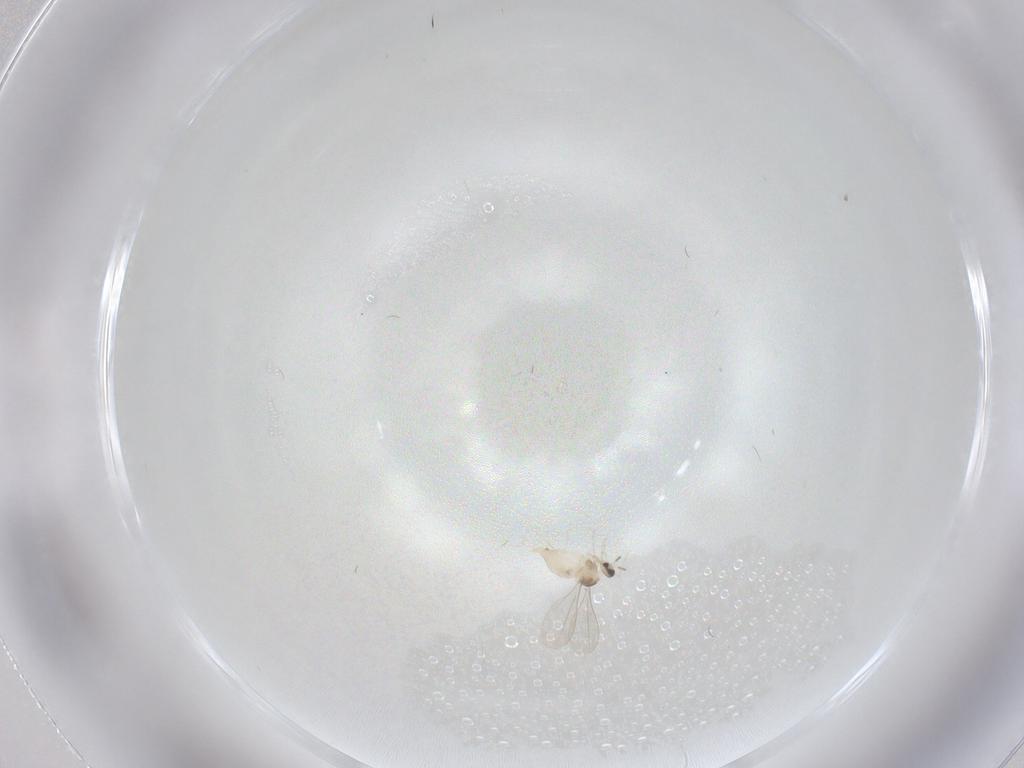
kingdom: Animalia
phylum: Arthropoda
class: Insecta
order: Diptera
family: Cecidomyiidae
